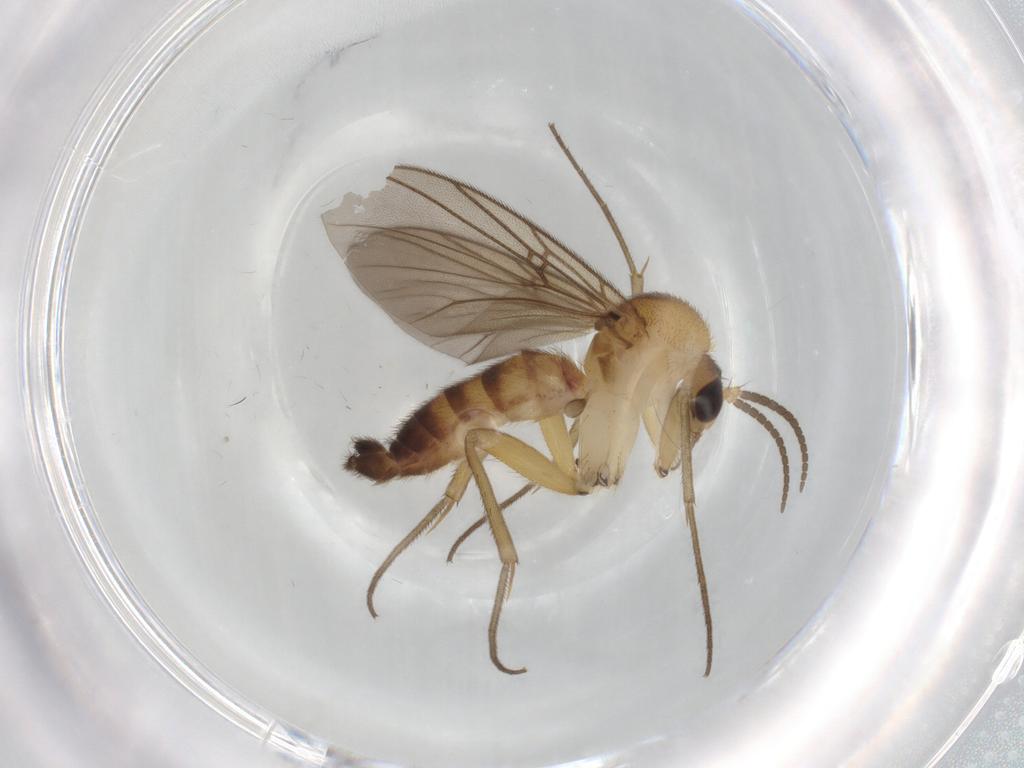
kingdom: Animalia
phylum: Arthropoda
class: Insecta
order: Diptera
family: Mycetophilidae
